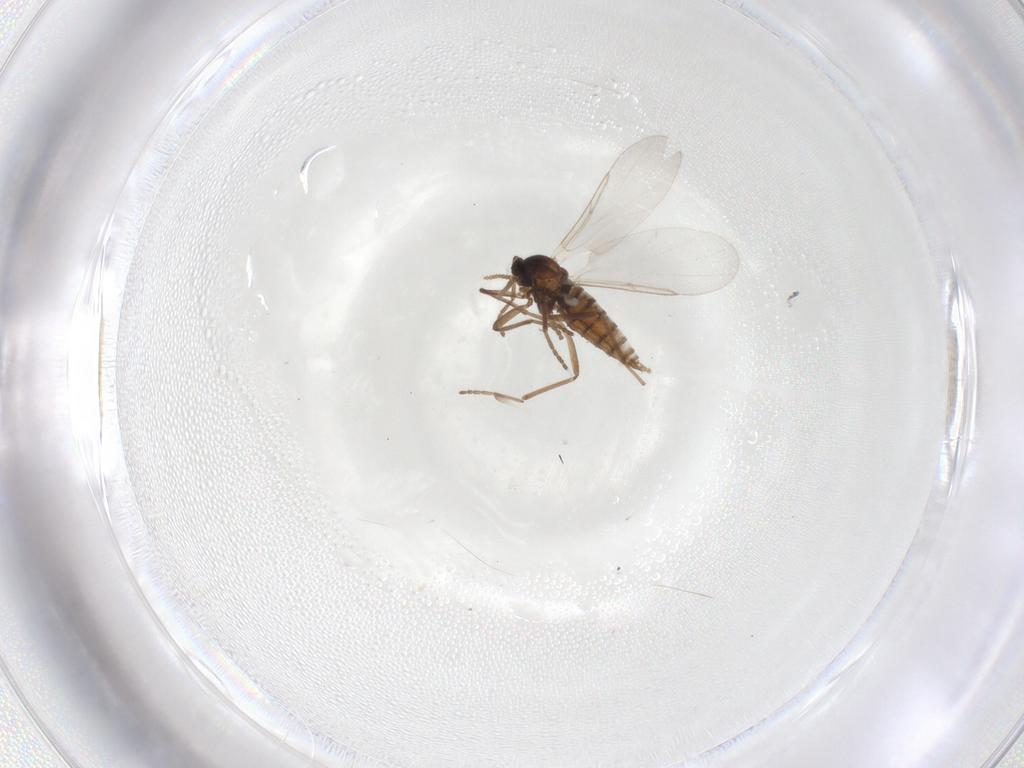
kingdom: Animalia
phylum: Arthropoda
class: Insecta
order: Diptera
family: Cecidomyiidae
